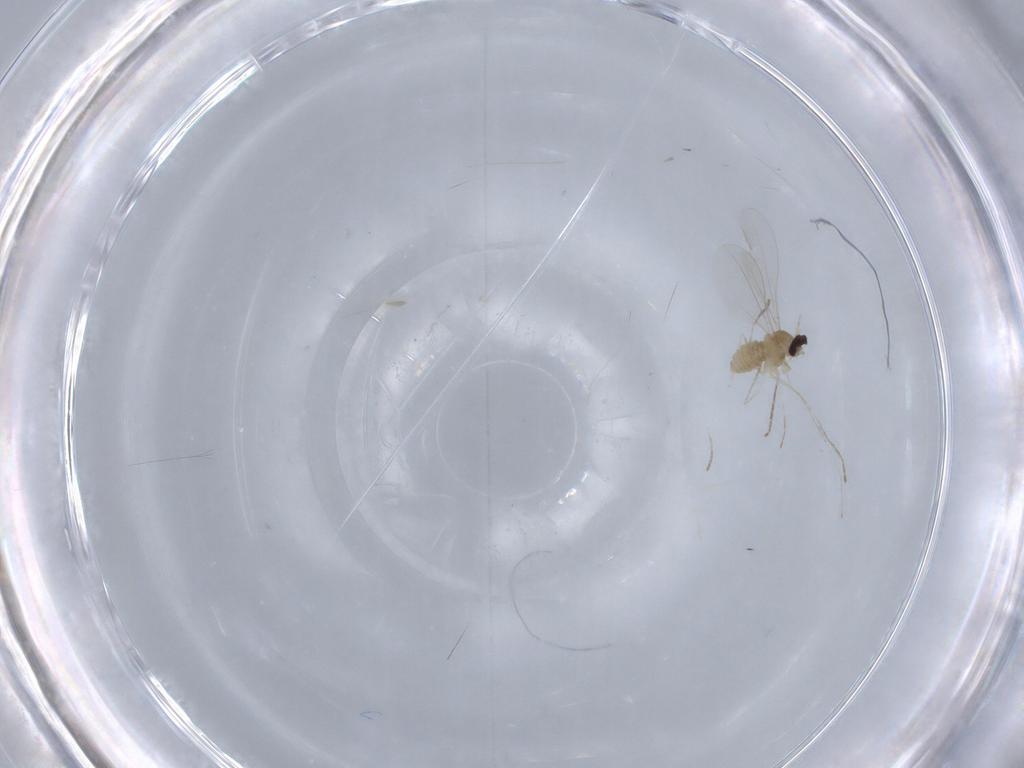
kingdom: Animalia
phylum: Arthropoda
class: Insecta
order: Diptera
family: Cecidomyiidae
